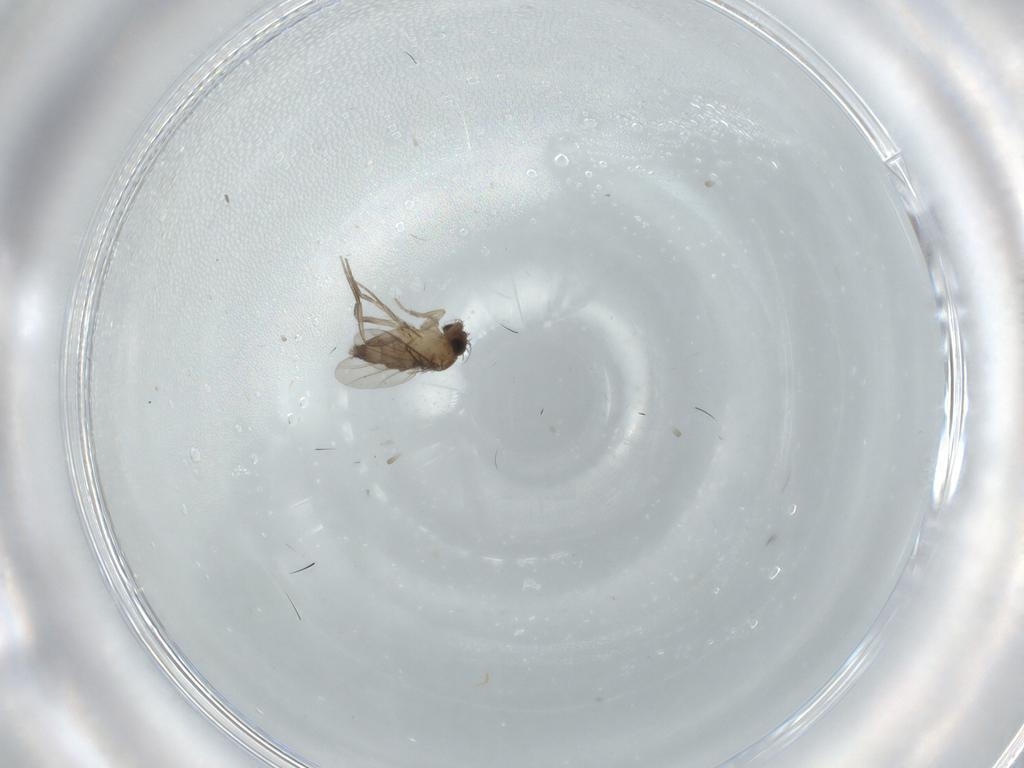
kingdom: Animalia
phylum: Arthropoda
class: Insecta
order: Diptera
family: Phoridae
